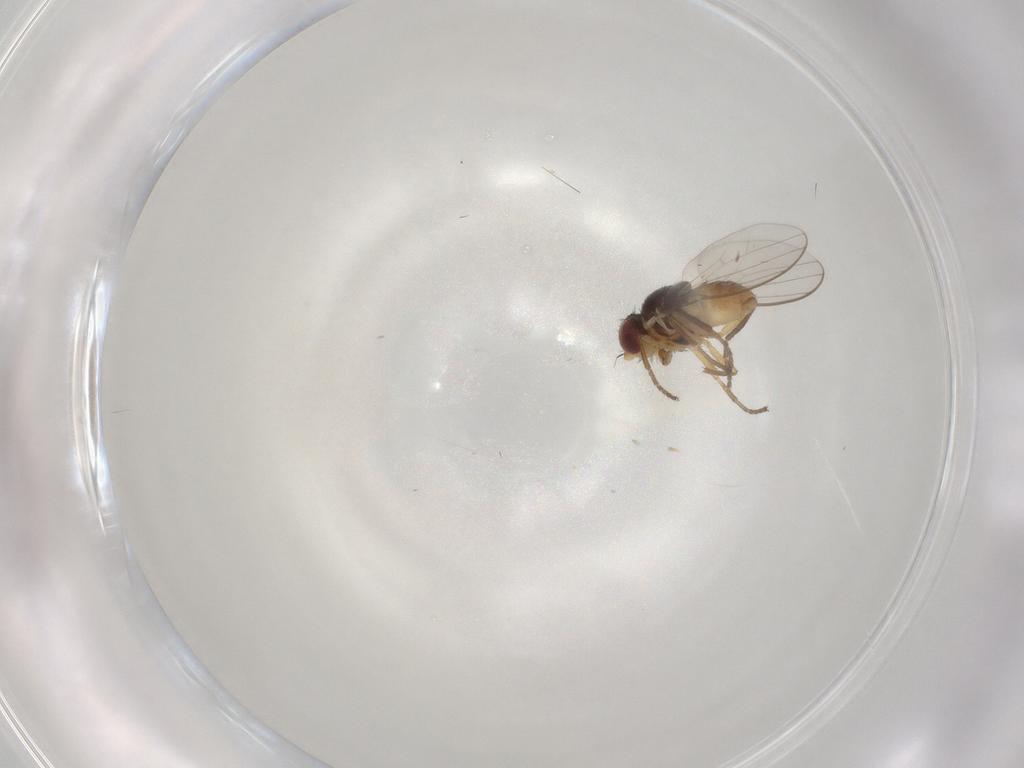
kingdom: Animalia
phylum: Arthropoda
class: Insecta
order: Diptera
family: Chloropidae
